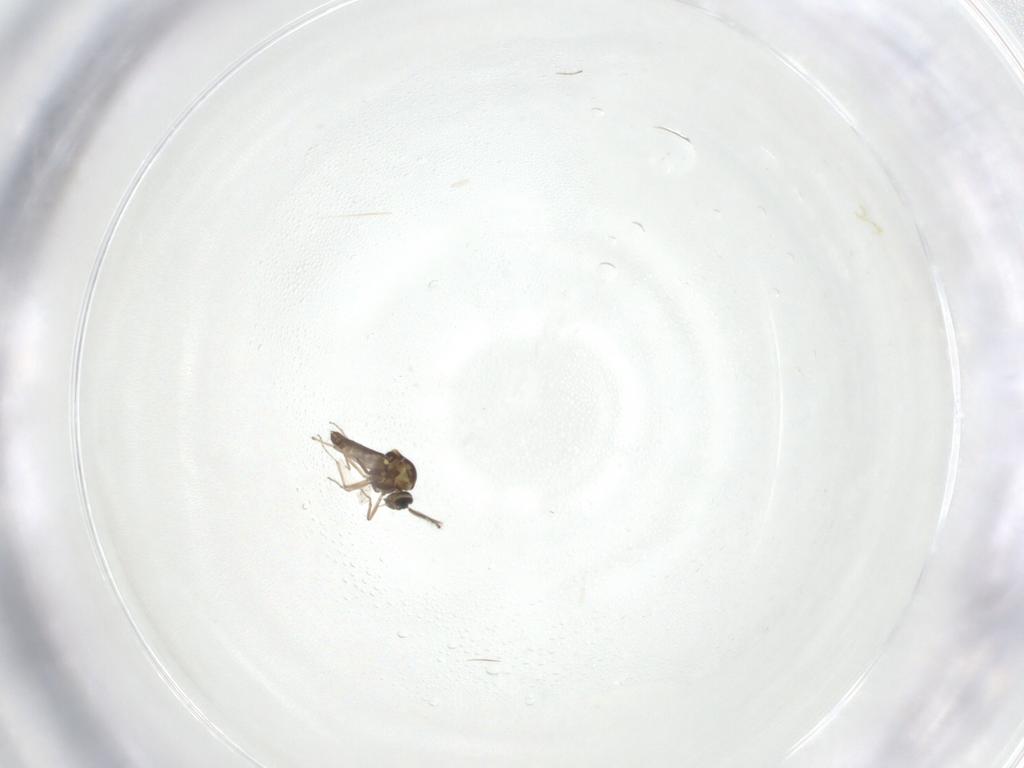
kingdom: Animalia
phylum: Arthropoda
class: Insecta
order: Diptera
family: Ceratopogonidae
